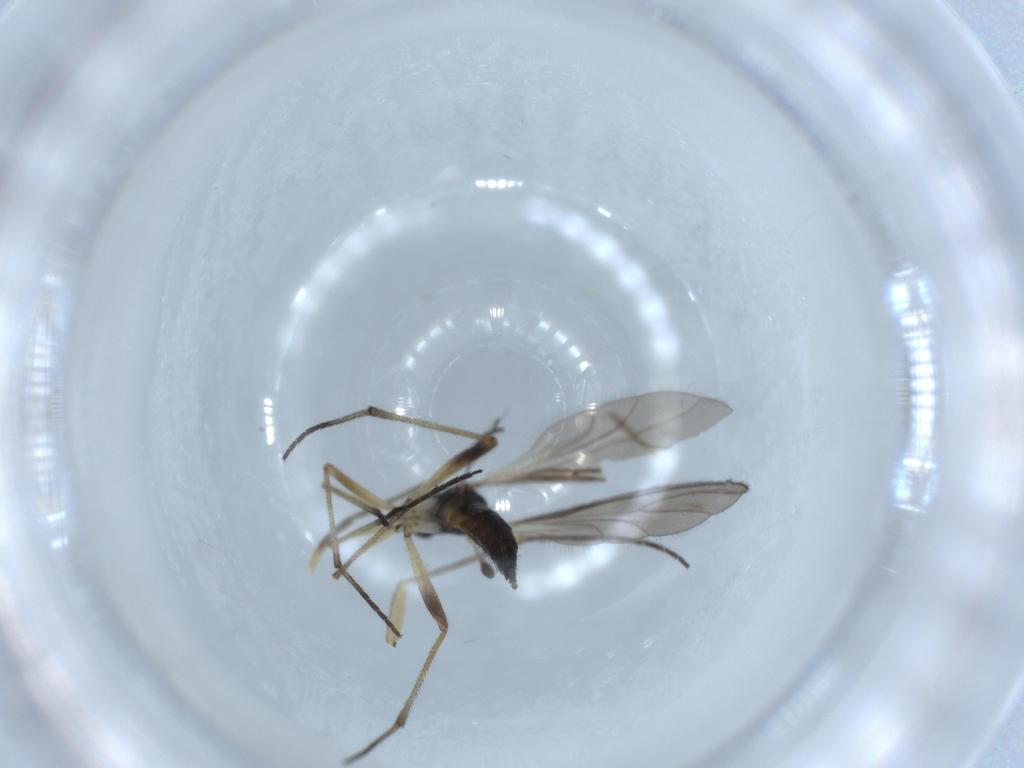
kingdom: Animalia
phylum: Arthropoda
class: Insecta
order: Diptera
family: Sciaridae
